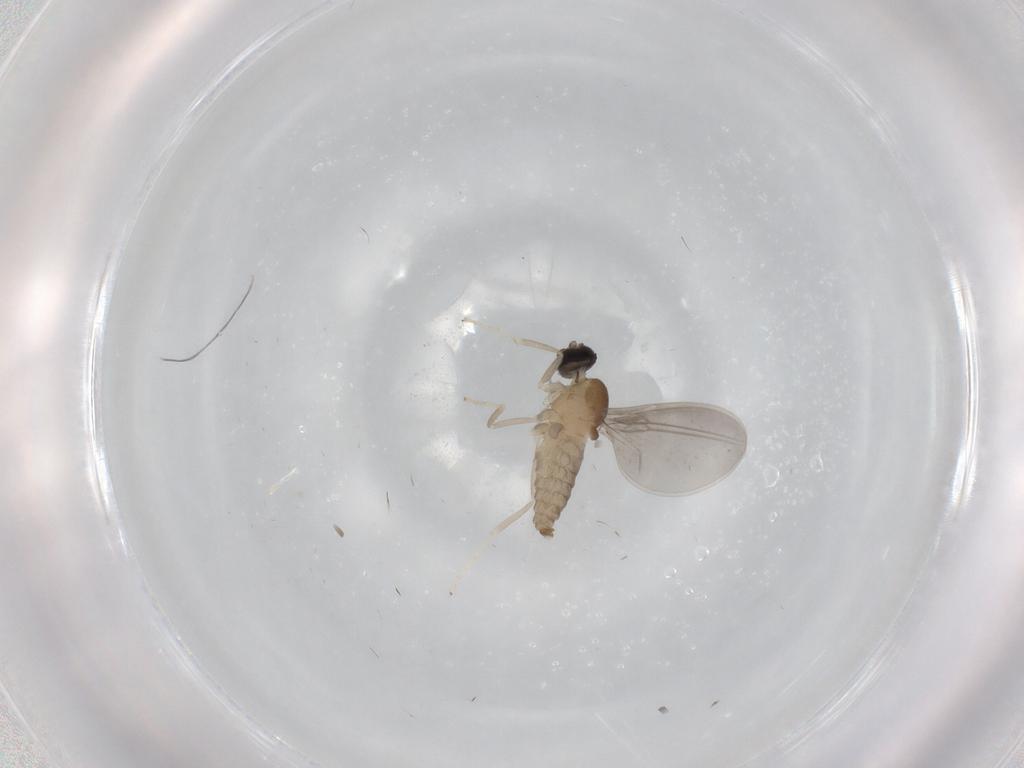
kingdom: Animalia
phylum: Arthropoda
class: Insecta
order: Diptera
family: Cecidomyiidae
